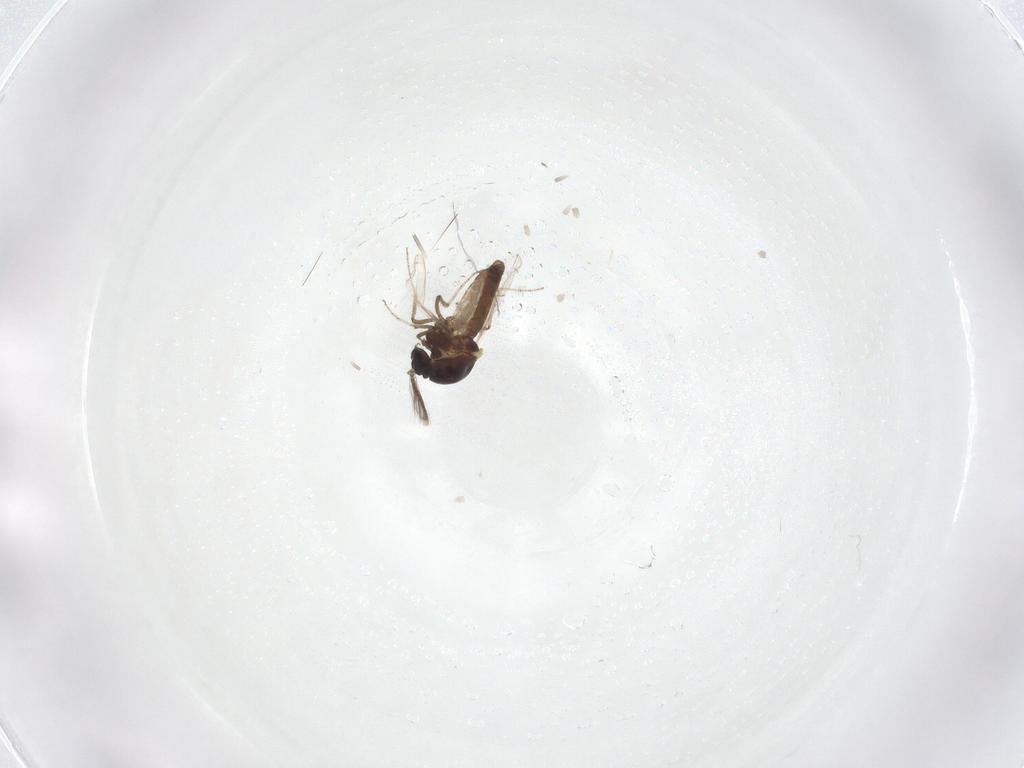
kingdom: Animalia
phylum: Arthropoda
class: Insecta
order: Diptera
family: Ceratopogonidae
